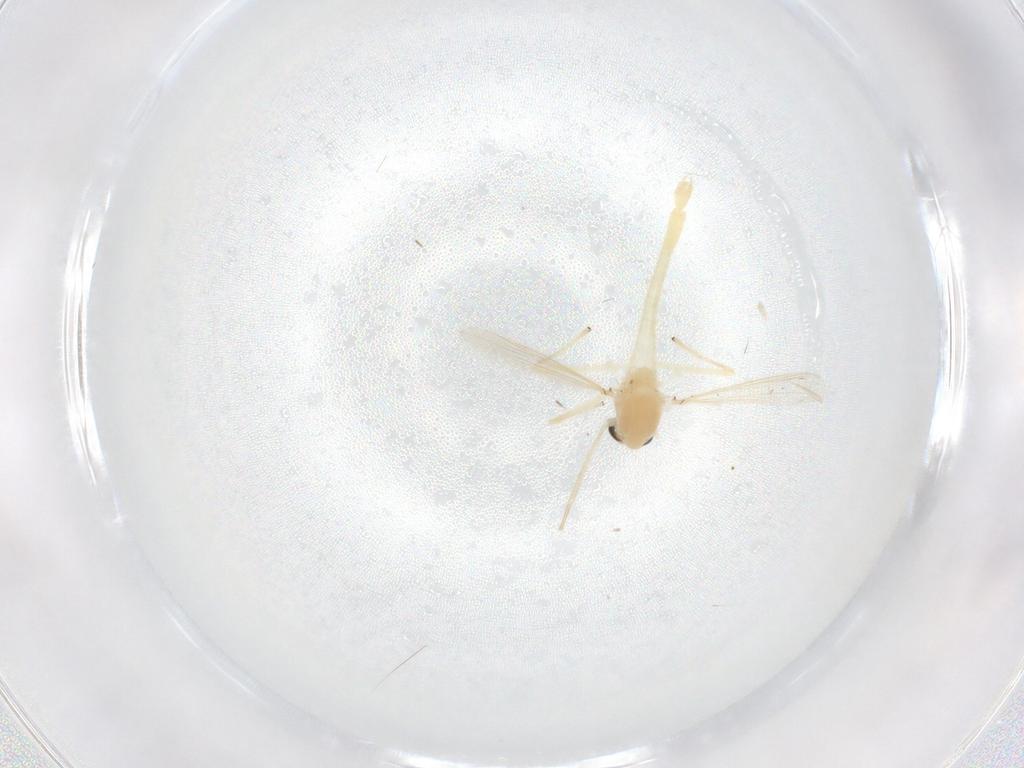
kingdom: Animalia
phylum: Arthropoda
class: Insecta
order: Diptera
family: Chironomidae
